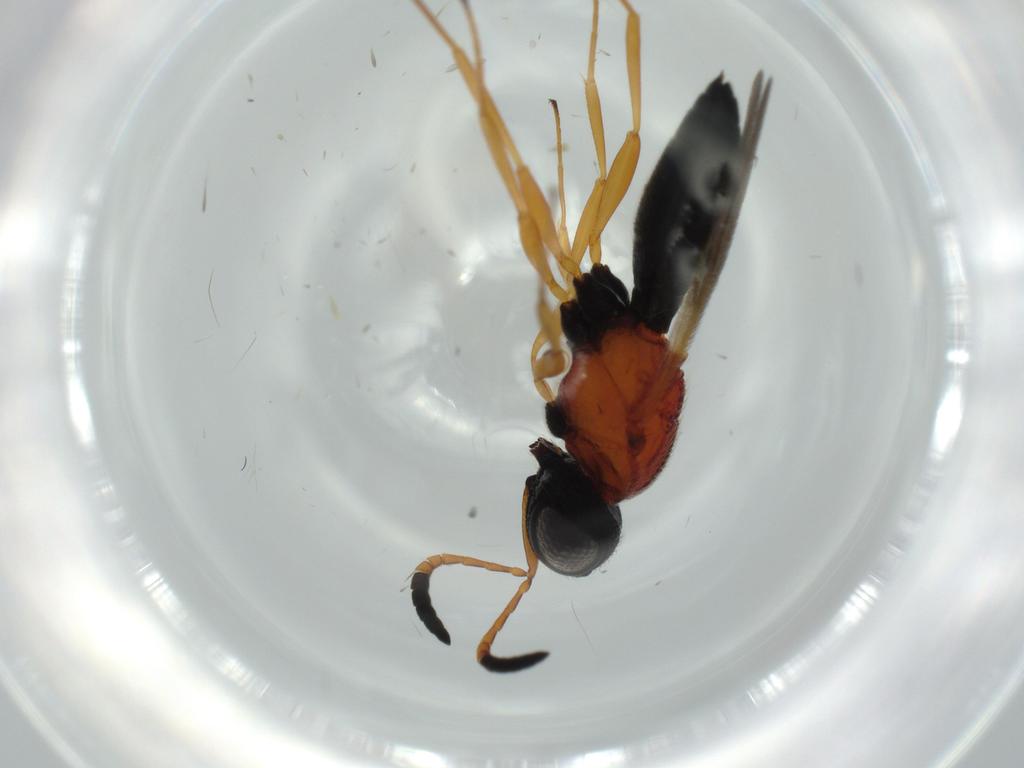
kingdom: Animalia
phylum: Arthropoda
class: Insecta
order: Hymenoptera
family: Scelionidae
